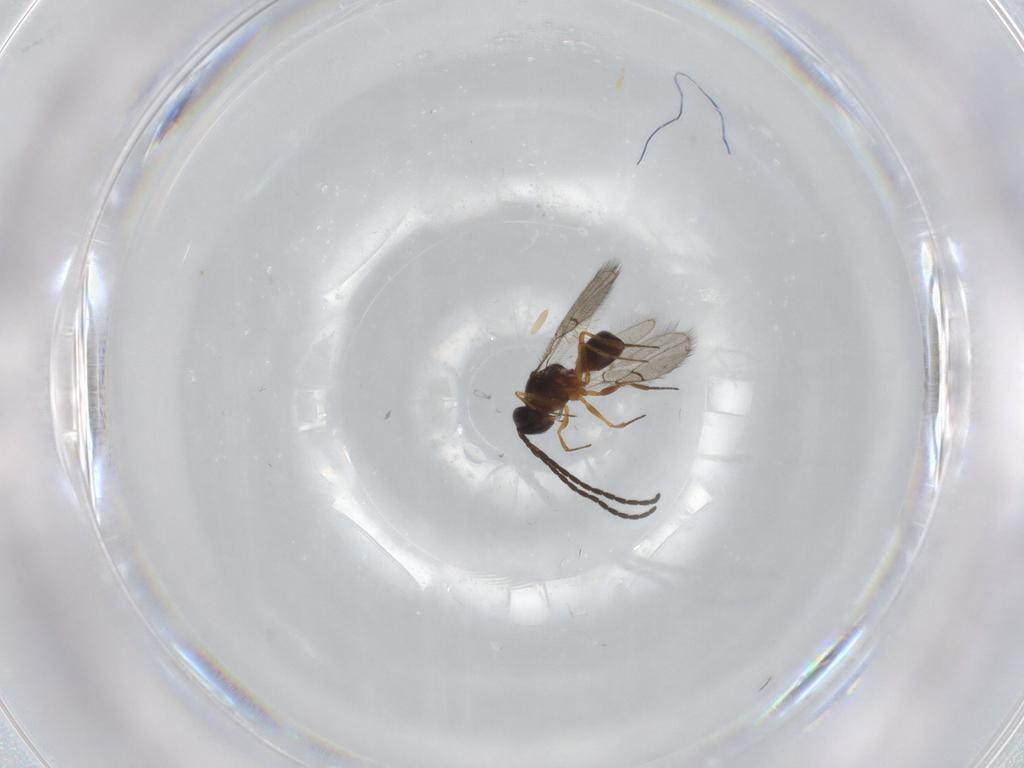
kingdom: Animalia
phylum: Arthropoda
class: Insecta
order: Hymenoptera
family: Figitidae
